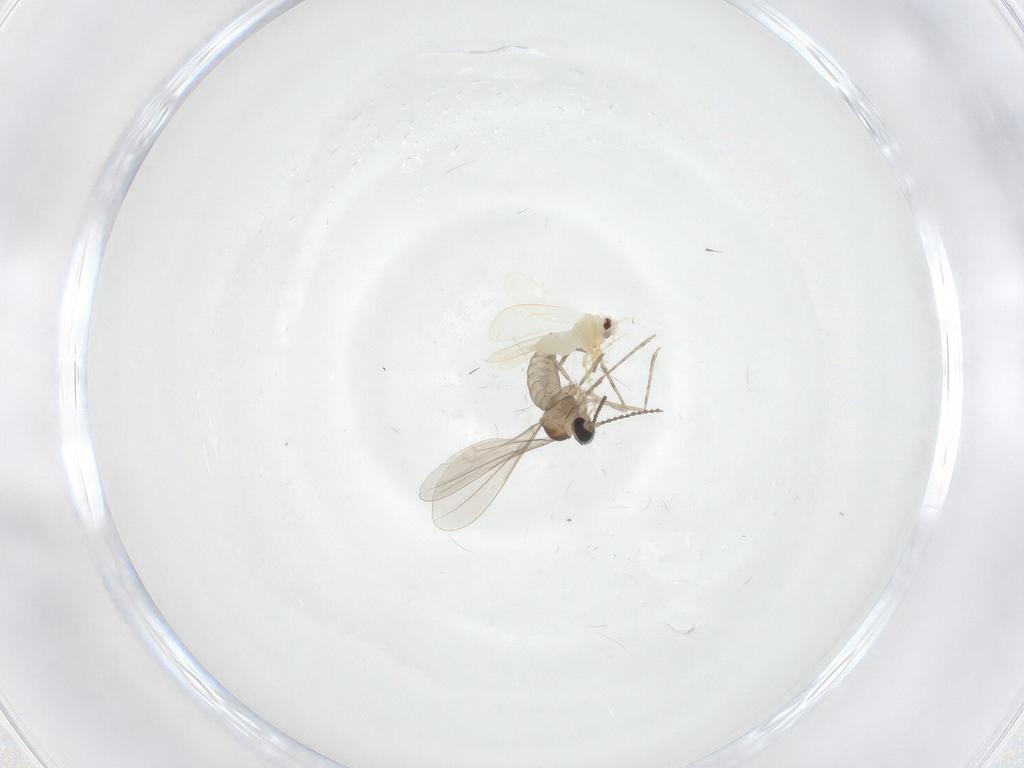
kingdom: Animalia
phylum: Arthropoda
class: Insecta
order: Diptera
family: Cecidomyiidae
